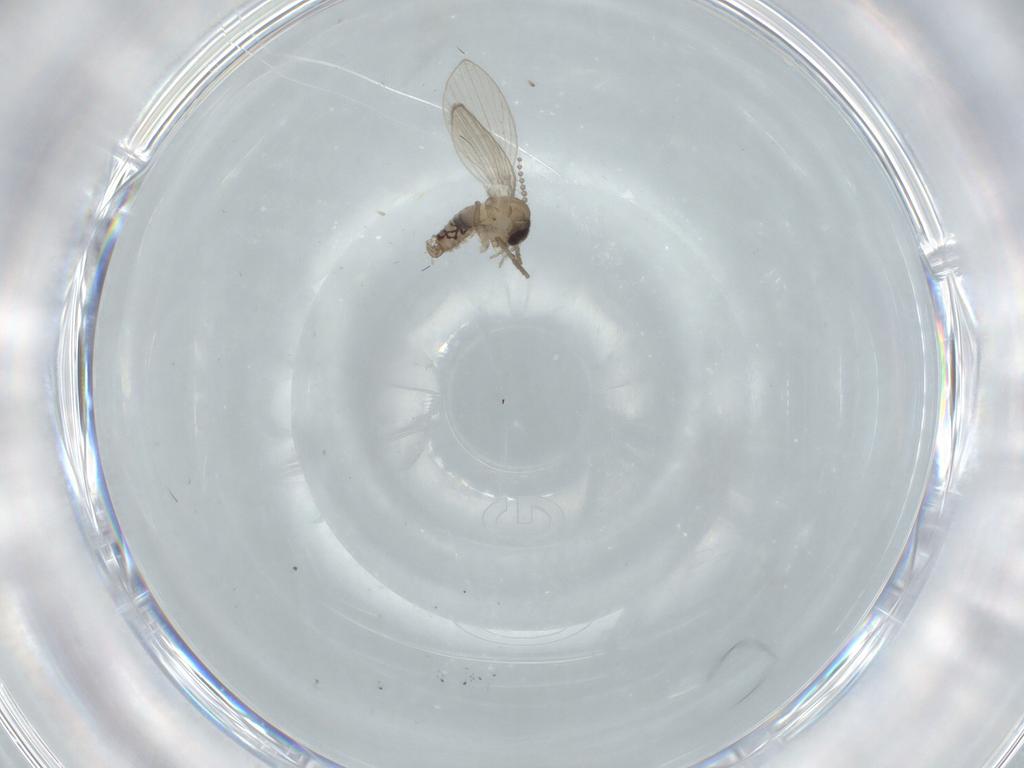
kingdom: Animalia
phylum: Arthropoda
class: Insecta
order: Diptera
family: Psychodidae
